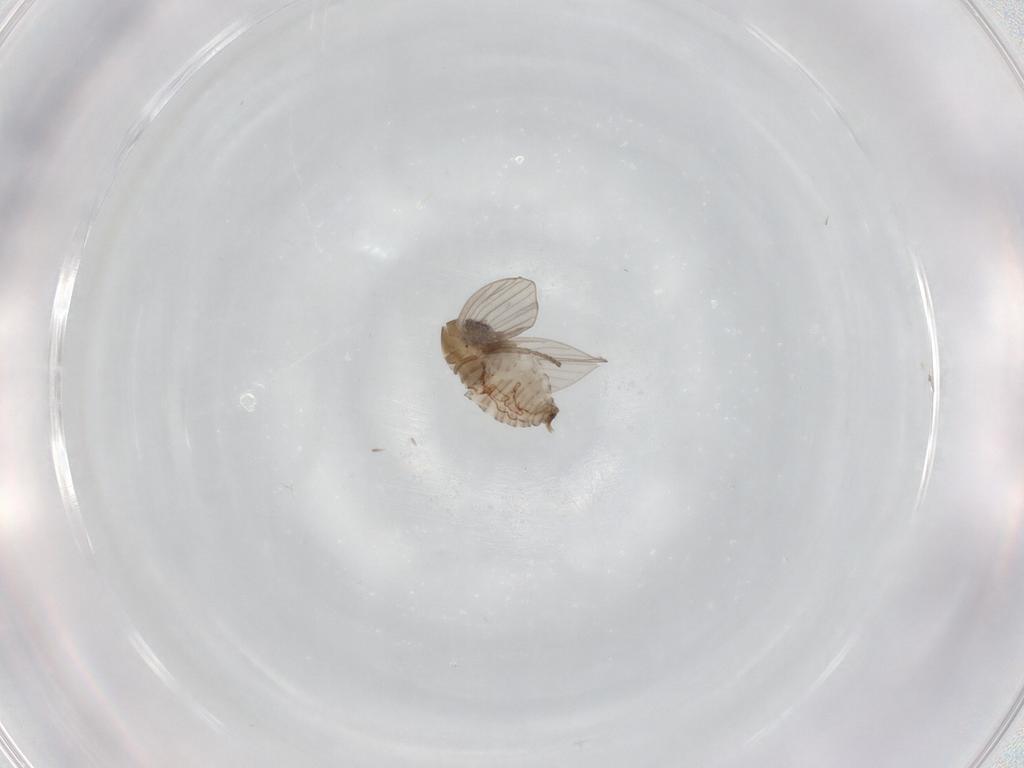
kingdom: Animalia
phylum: Arthropoda
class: Insecta
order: Diptera
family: Psychodidae
